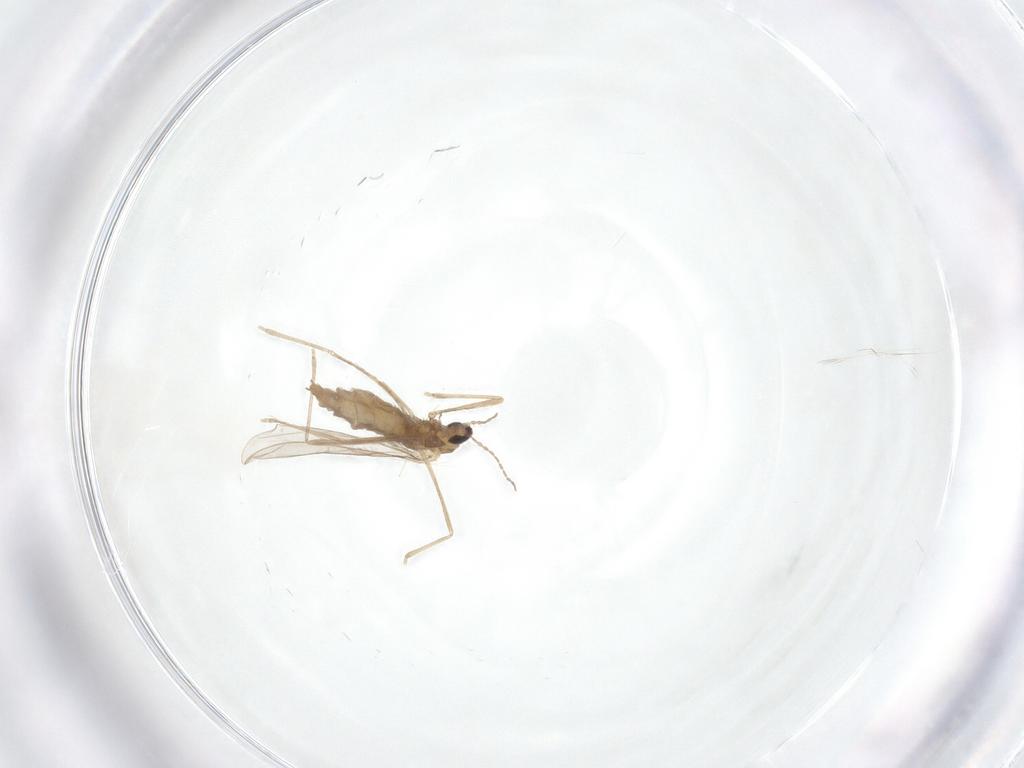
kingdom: Animalia
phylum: Arthropoda
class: Insecta
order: Diptera
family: Cecidomyiidae
